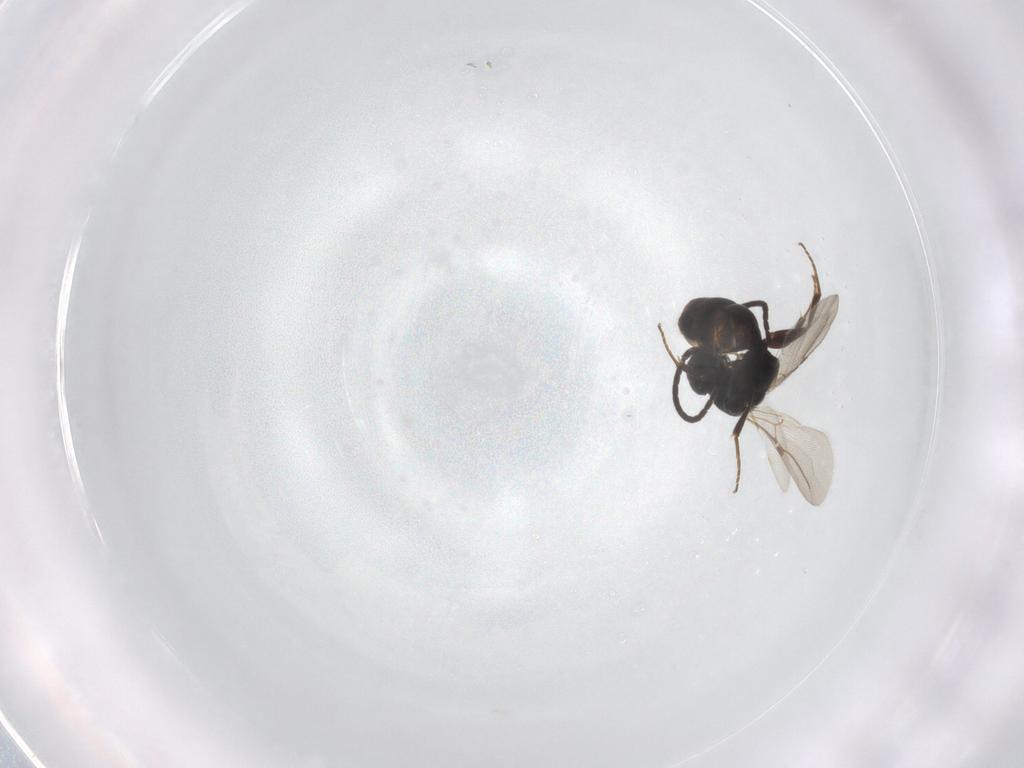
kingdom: Animalia
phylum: Arthropoda
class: Insecta
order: Hymenoptera
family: Bethylidae
